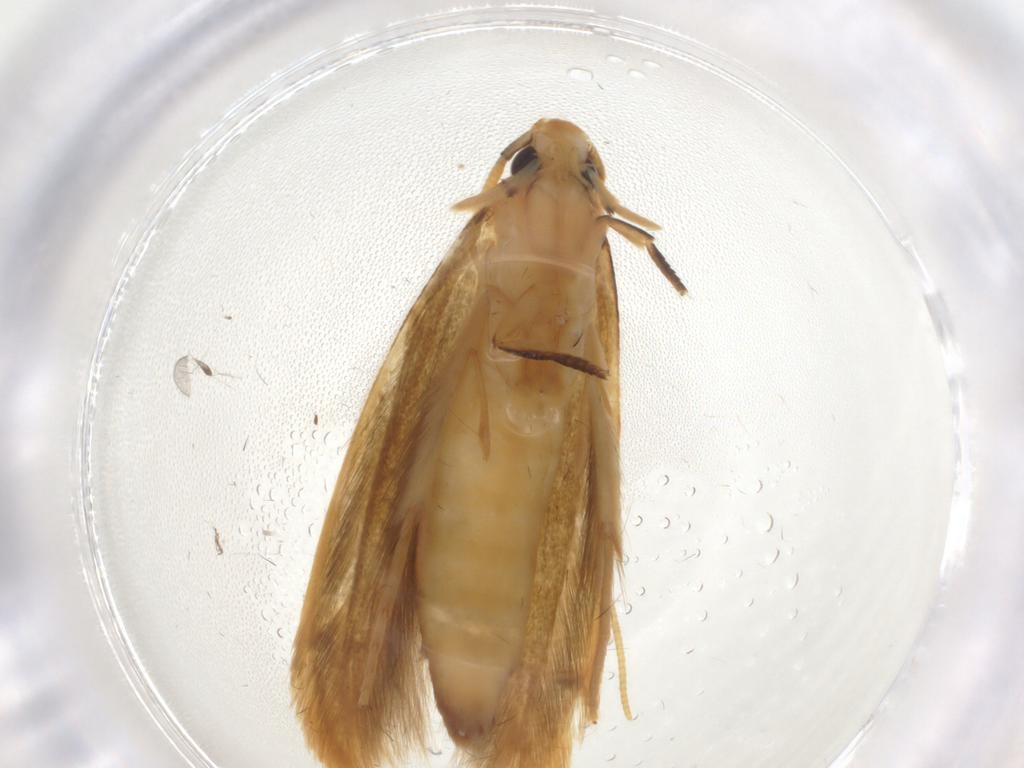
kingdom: Animalia
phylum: Arthropoda
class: Insecta
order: Lepidoptera
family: Tineidae
